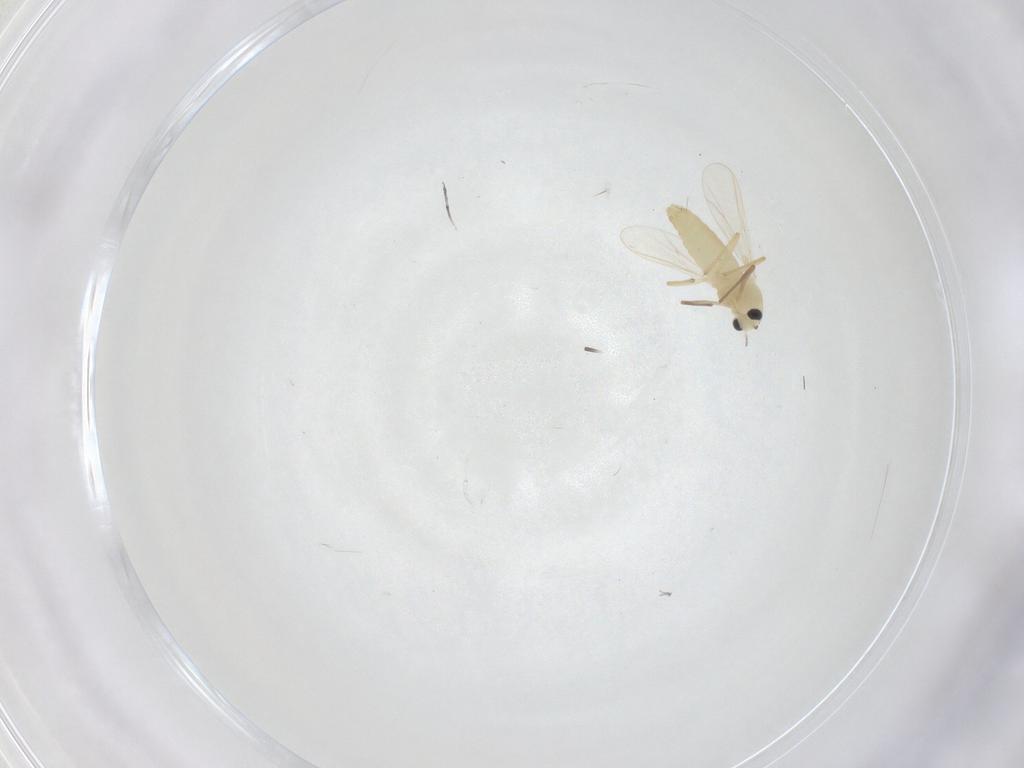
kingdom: Animalia
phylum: Arthropoda
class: Insecta
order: Diptera
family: Chironomidae
